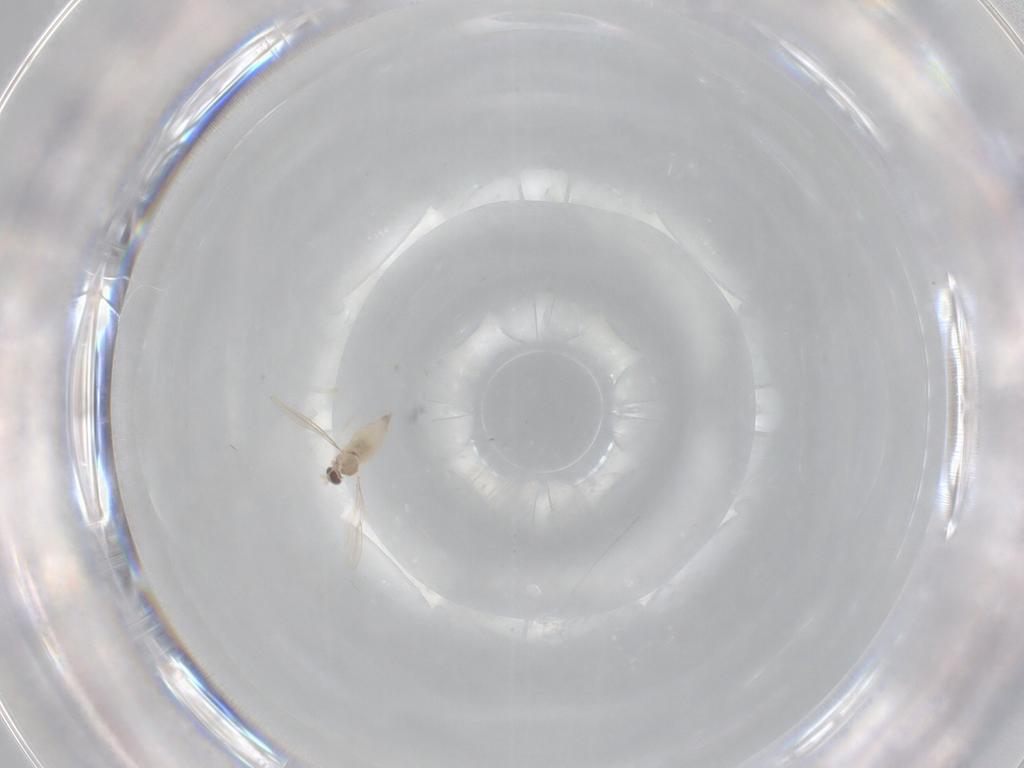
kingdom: Animalia
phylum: Arthropoda
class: Insecta
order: Diptera
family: Cecidomyiidae
